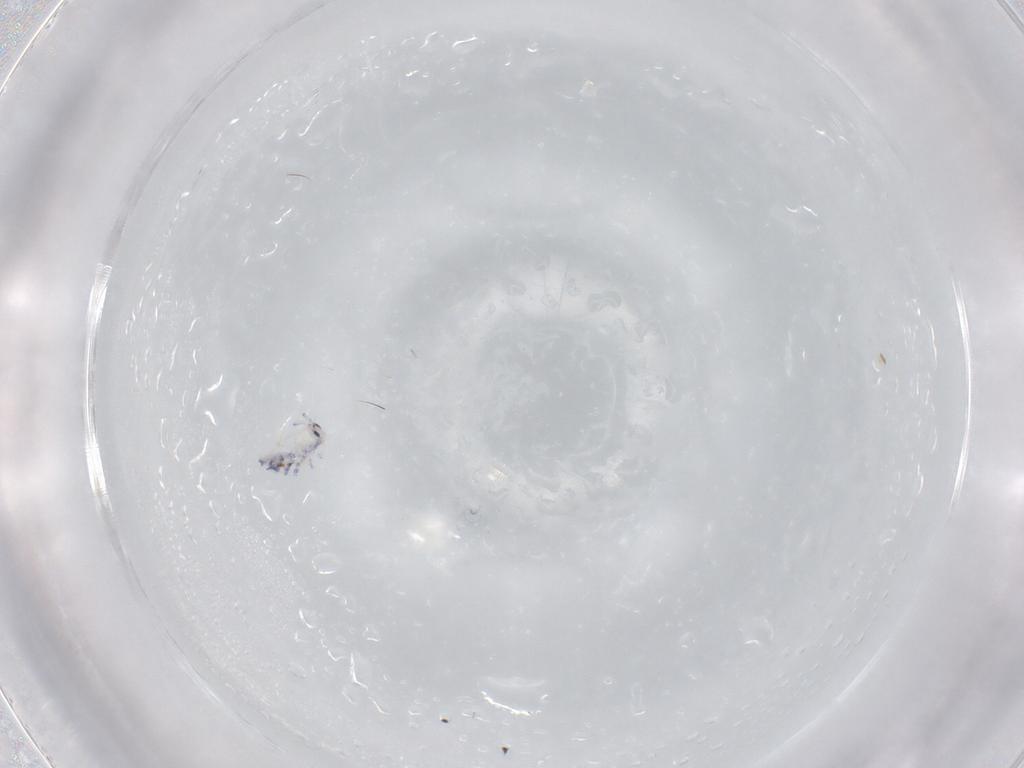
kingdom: Animalia
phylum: Arthropoda
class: Collembola
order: Entomobryomorpha
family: Entomobryidae
